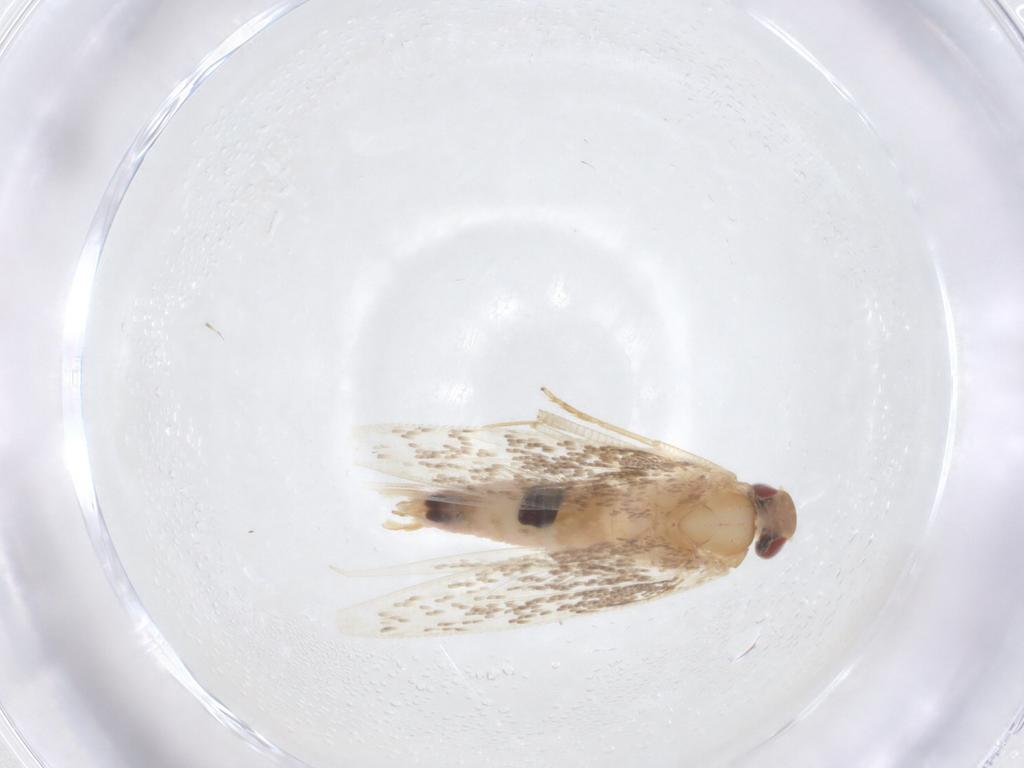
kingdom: Animalia
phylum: Arthropoda
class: Insecta
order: Lepidoptera
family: Cosmopterigidae
